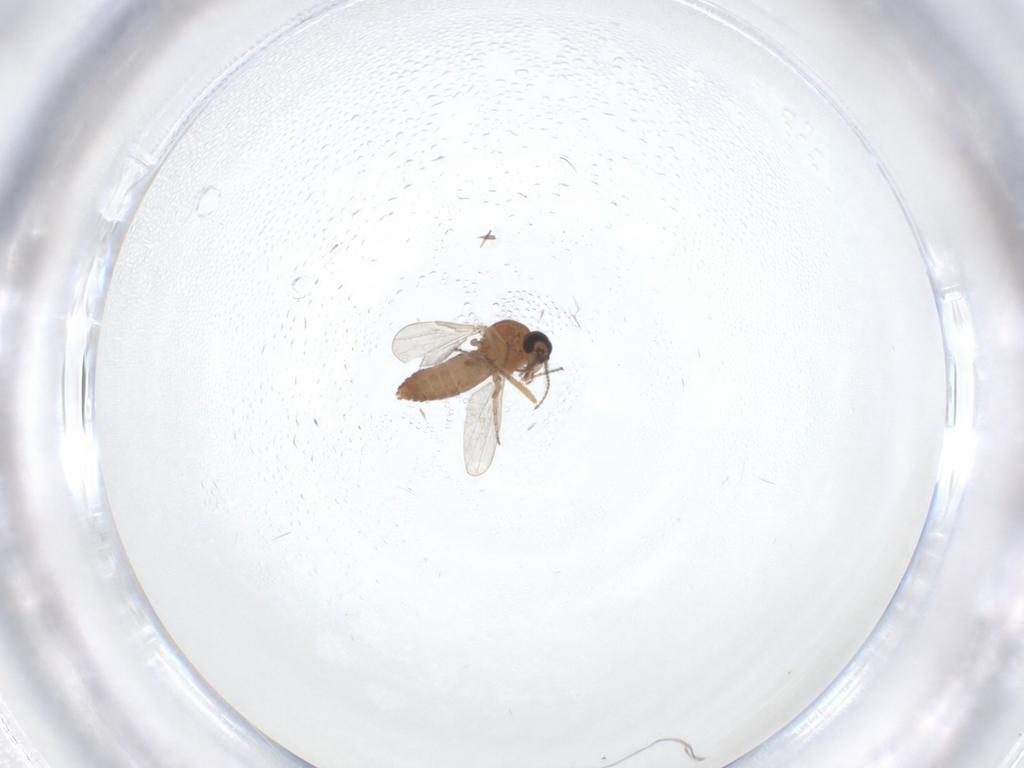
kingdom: Animalia
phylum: Arthropoda
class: Insecta
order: Diptera
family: Ceratopogonidae
